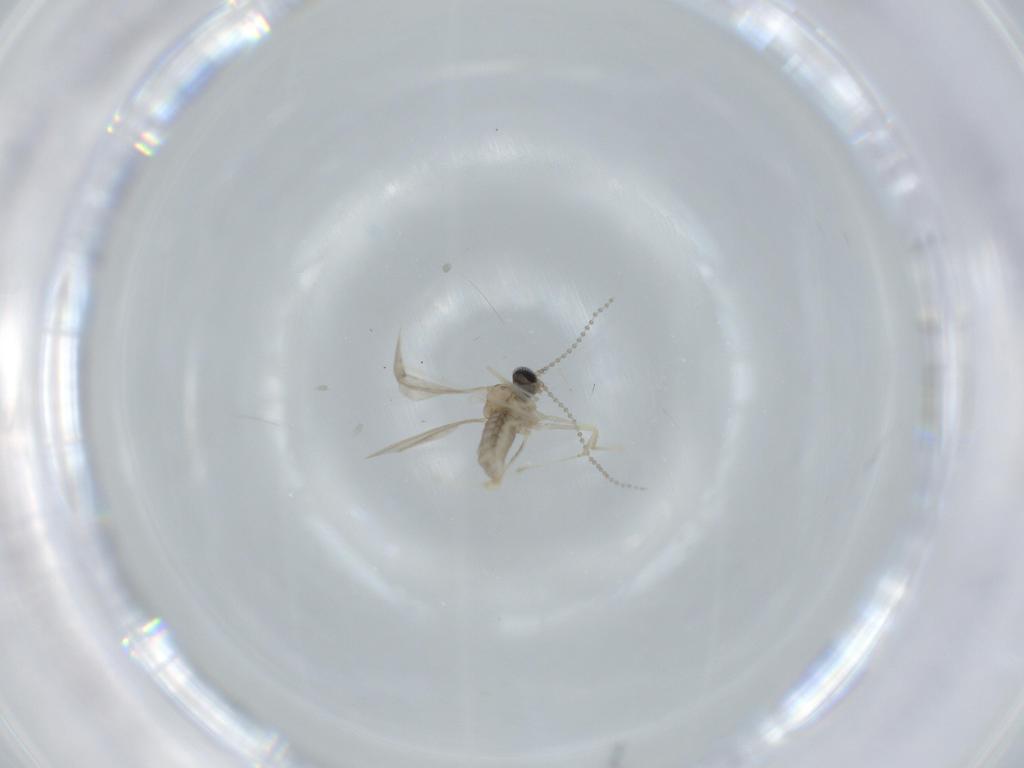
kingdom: Animalia
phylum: Arthropoda
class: Insecta
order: Diptera
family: Cecidomyiidae
